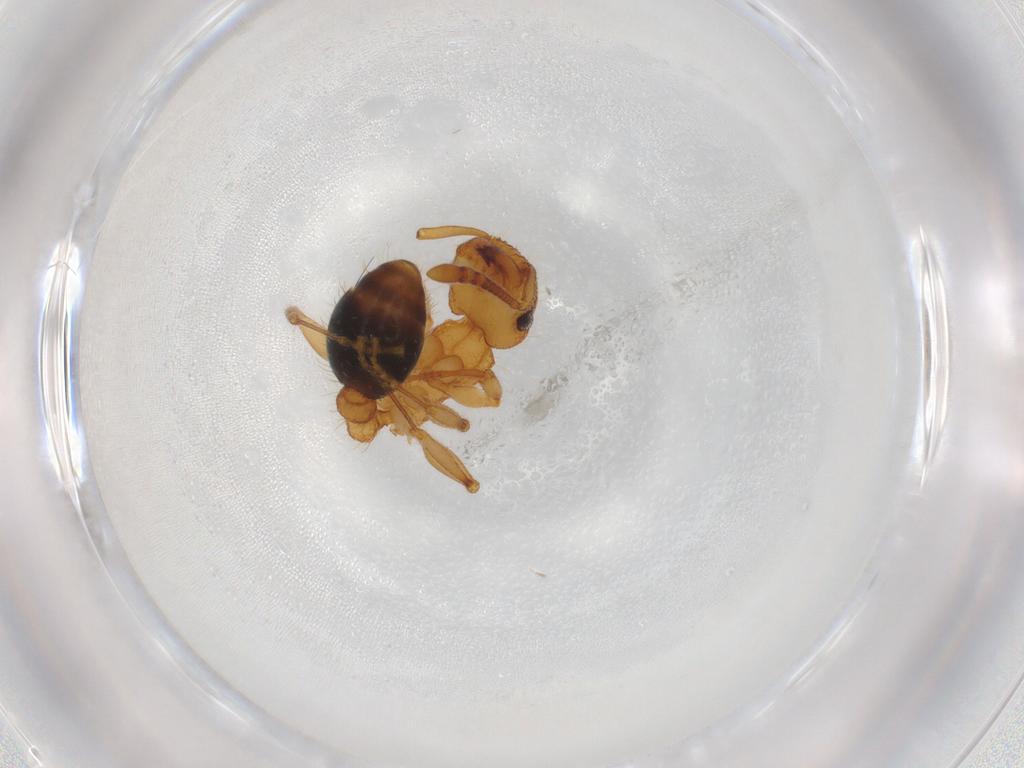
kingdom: Animalia
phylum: Arthropoda
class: Insecta
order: Hymenoptera
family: Formicidae
